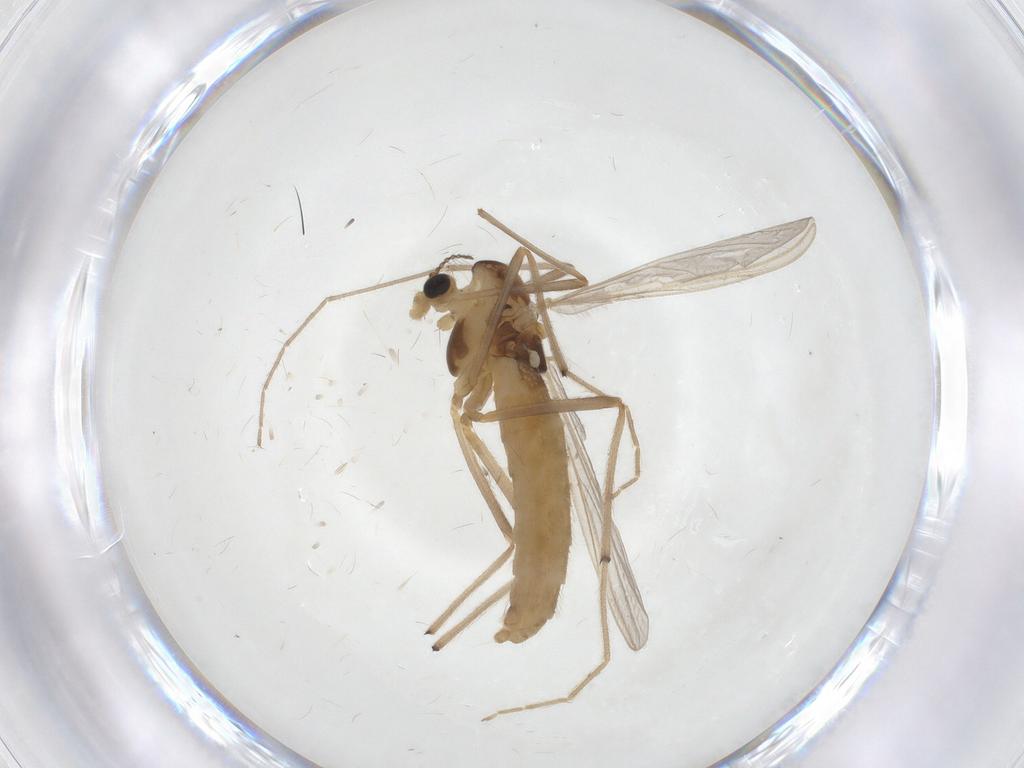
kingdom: Animalia
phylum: Arthropoda
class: Insecta
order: Diptera
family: Chironomidae
